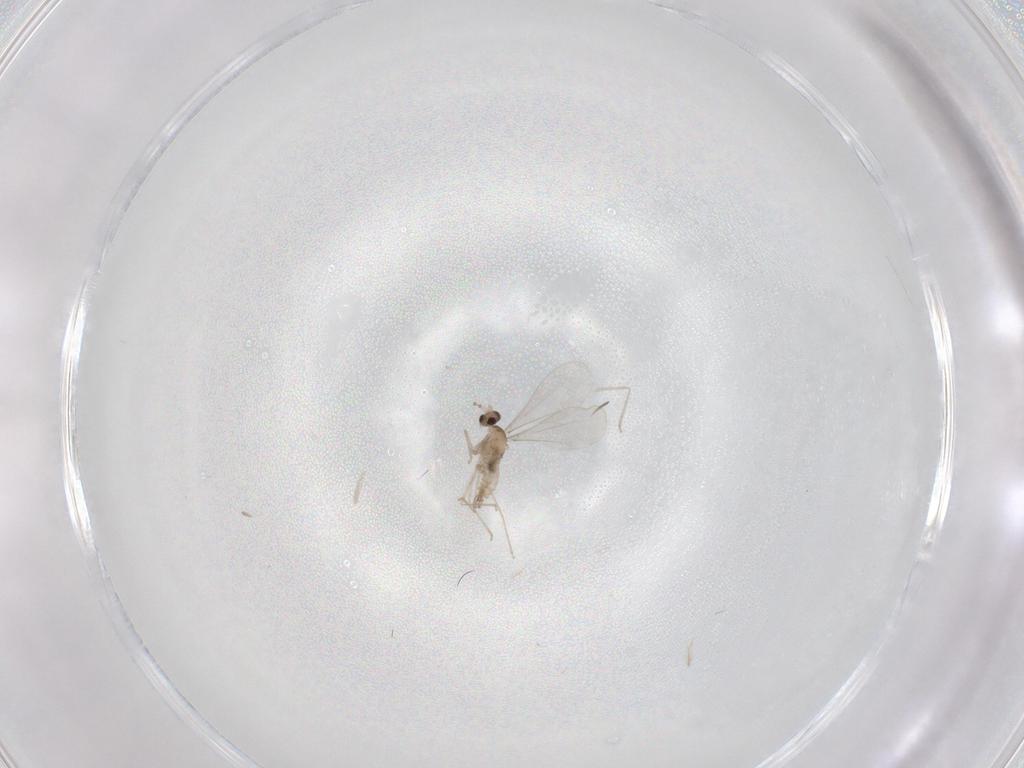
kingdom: Animalia
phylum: Arthropoda
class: Insecta
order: Diptera
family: Cecidomyiidae
